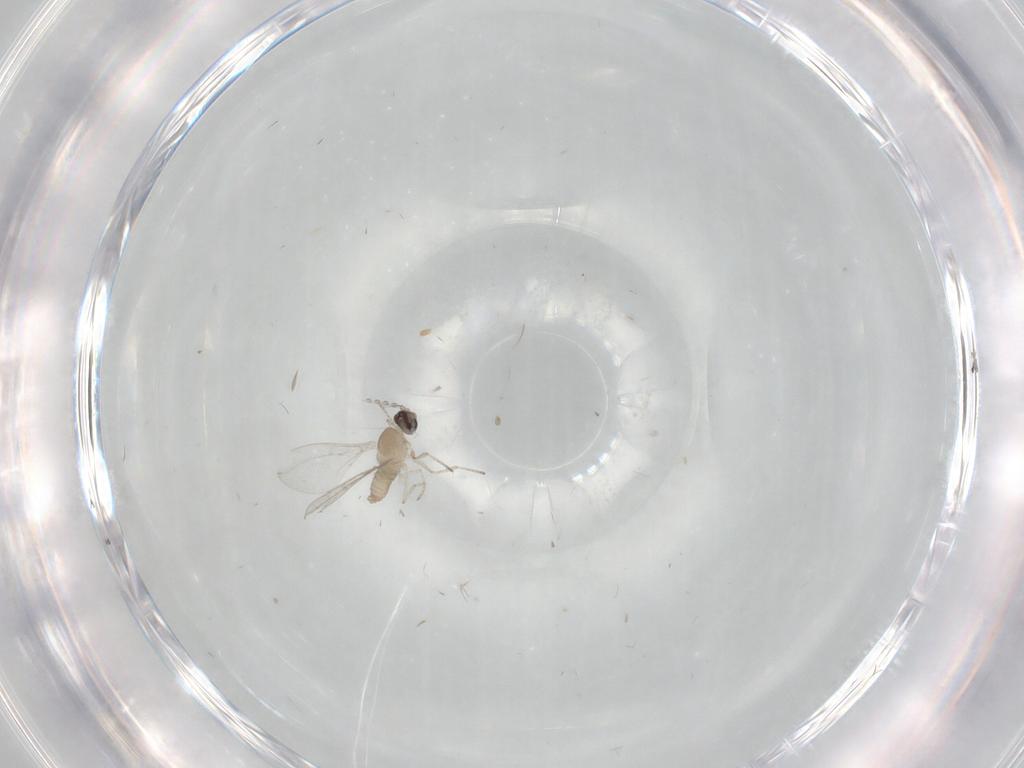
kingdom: Animalia
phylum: Arthropoda
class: Insecta
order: Diptera
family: Cecidomyiidae
